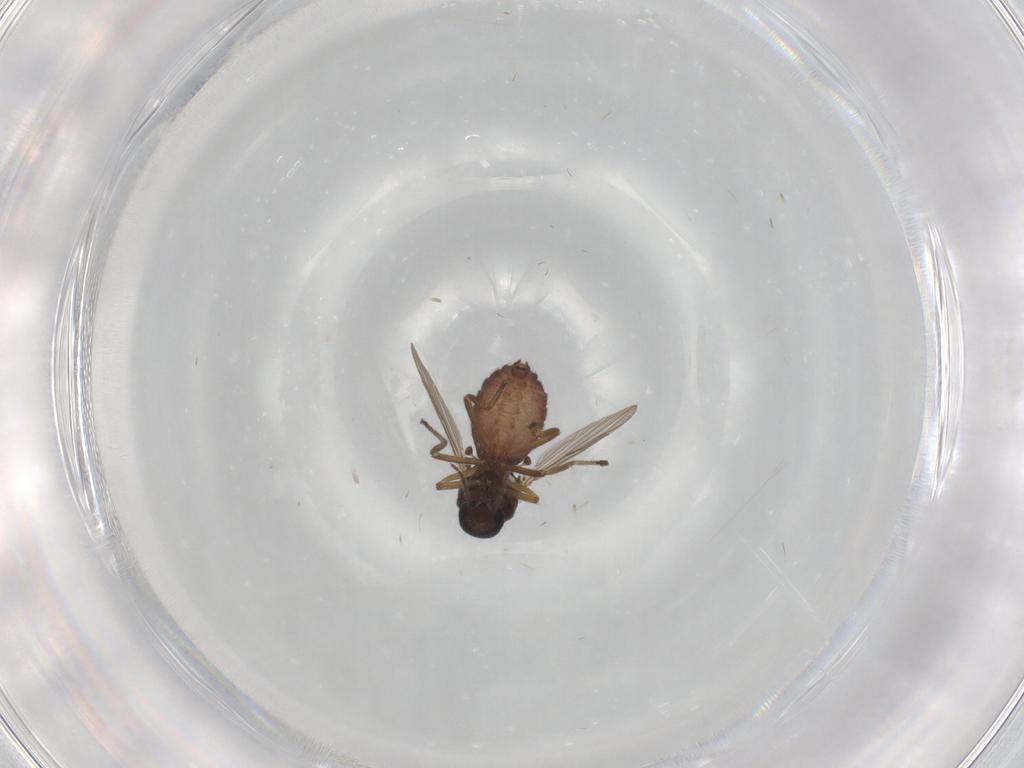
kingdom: Animalia
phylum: Arthropoda
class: Insecta
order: Diptera
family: Ceratopogonidae
